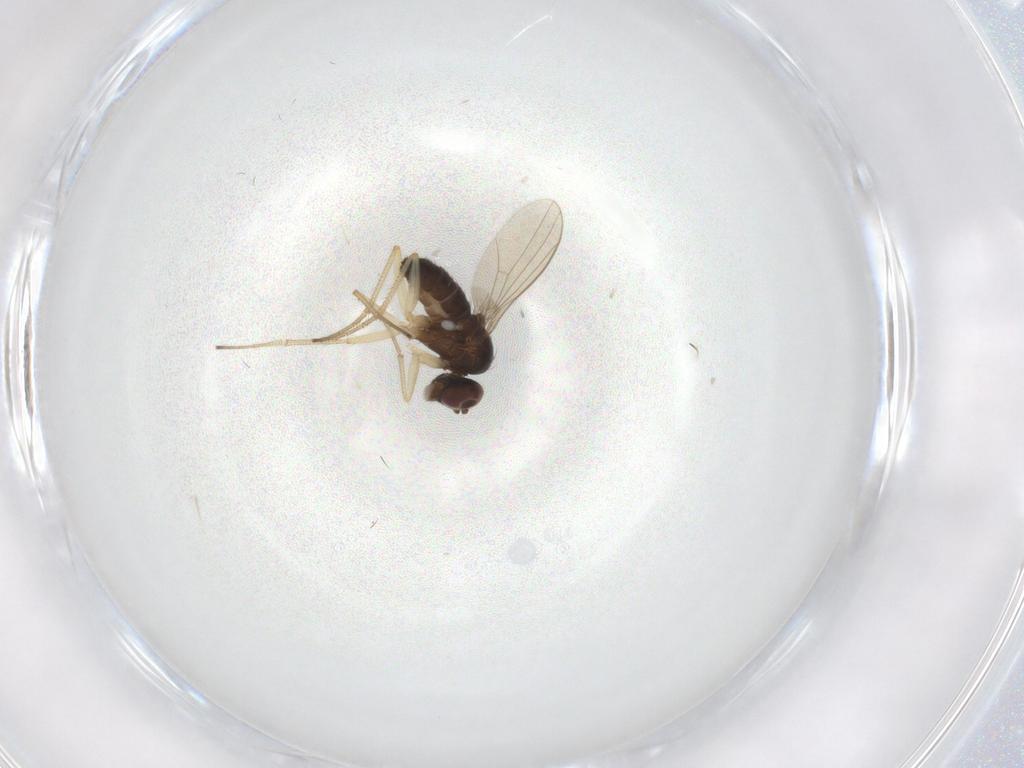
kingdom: Animalia
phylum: Arthropoda
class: Insecta
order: Diptera
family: Dolichopodidae
